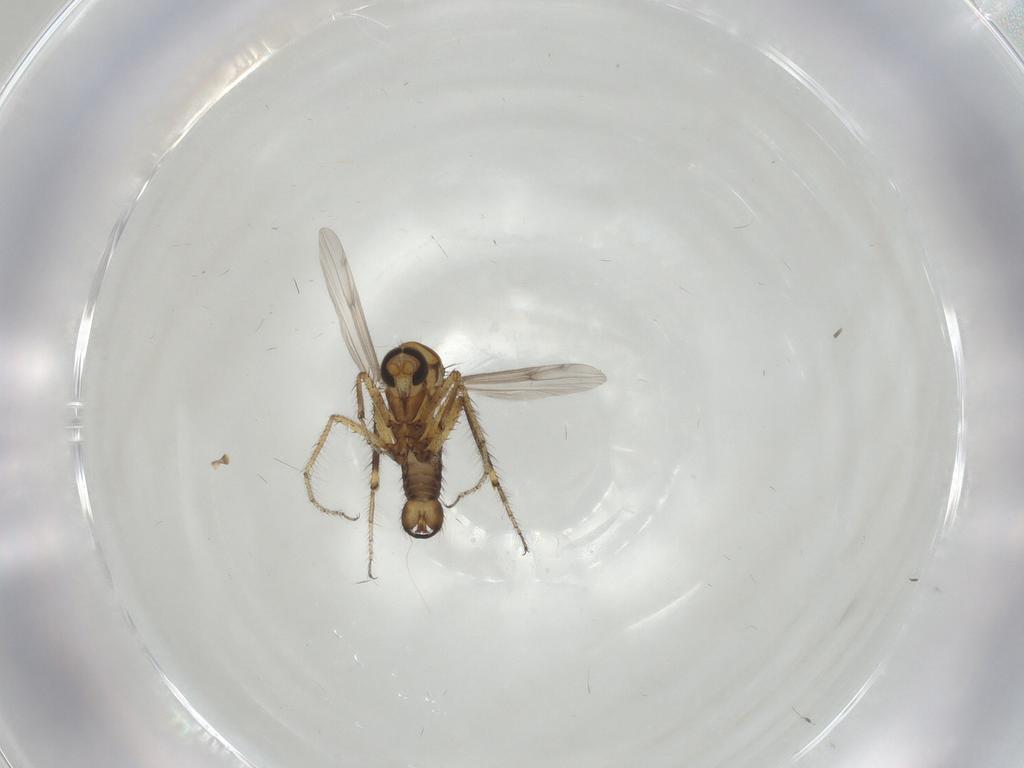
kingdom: Animalia
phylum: Arthropoda
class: Insecta
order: Diptera
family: Ceratopogonidae
